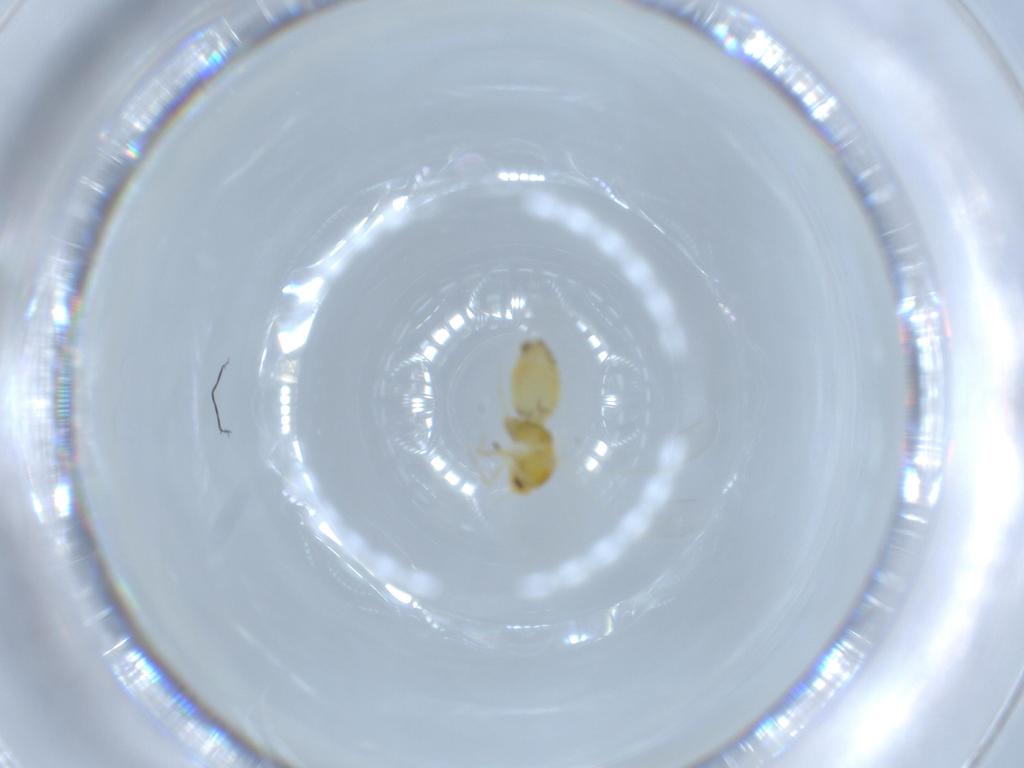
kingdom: Animalia
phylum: Arthropoda
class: Insecta
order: Hemiptera
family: Aleyrodidae
